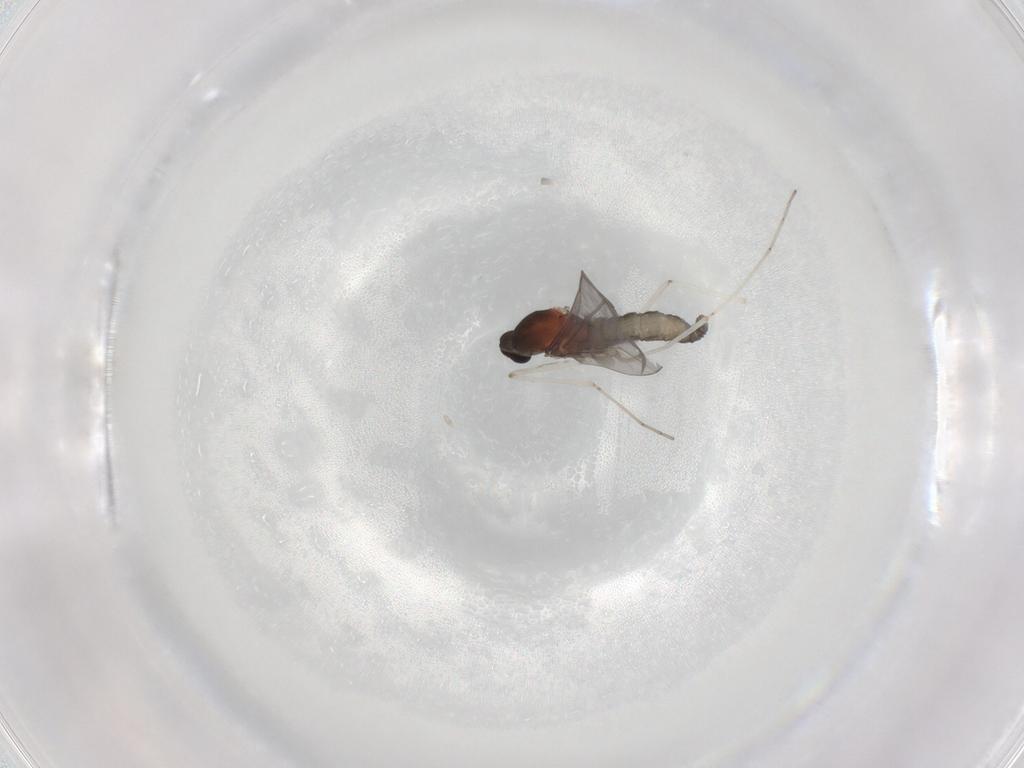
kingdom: Animalia
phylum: Arthropoda
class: Insecta
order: Diptera
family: Cecidomyiidae
